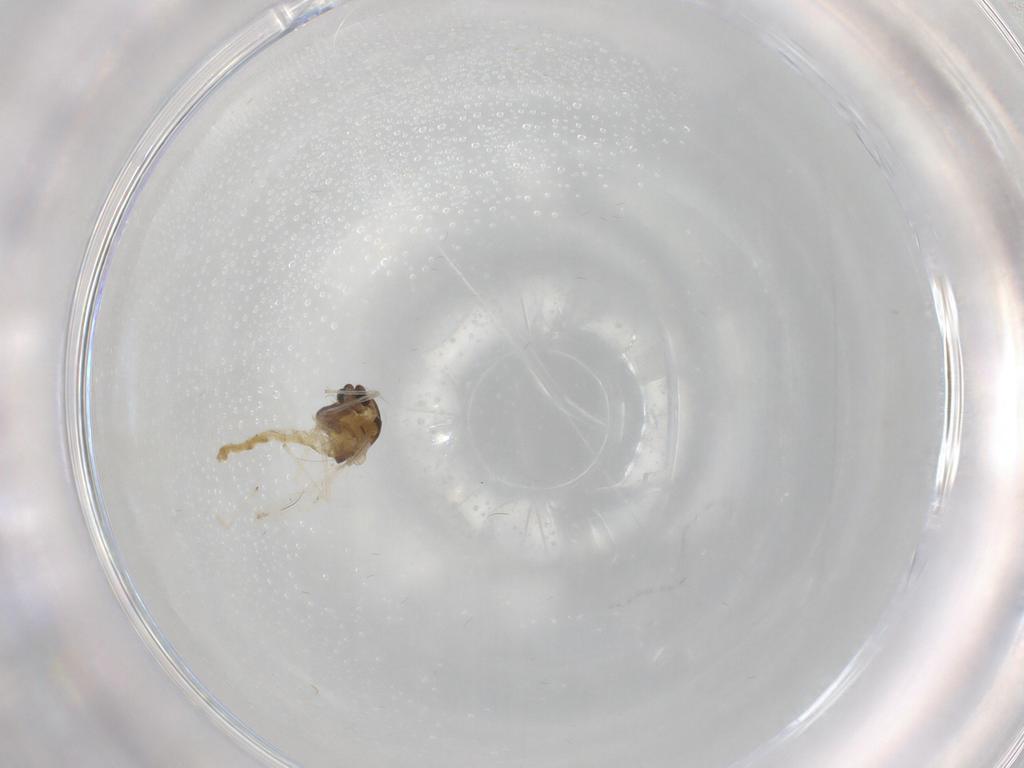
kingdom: Animalia
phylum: Arthropoda
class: Insecta
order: Diptera
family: Chironomidae
